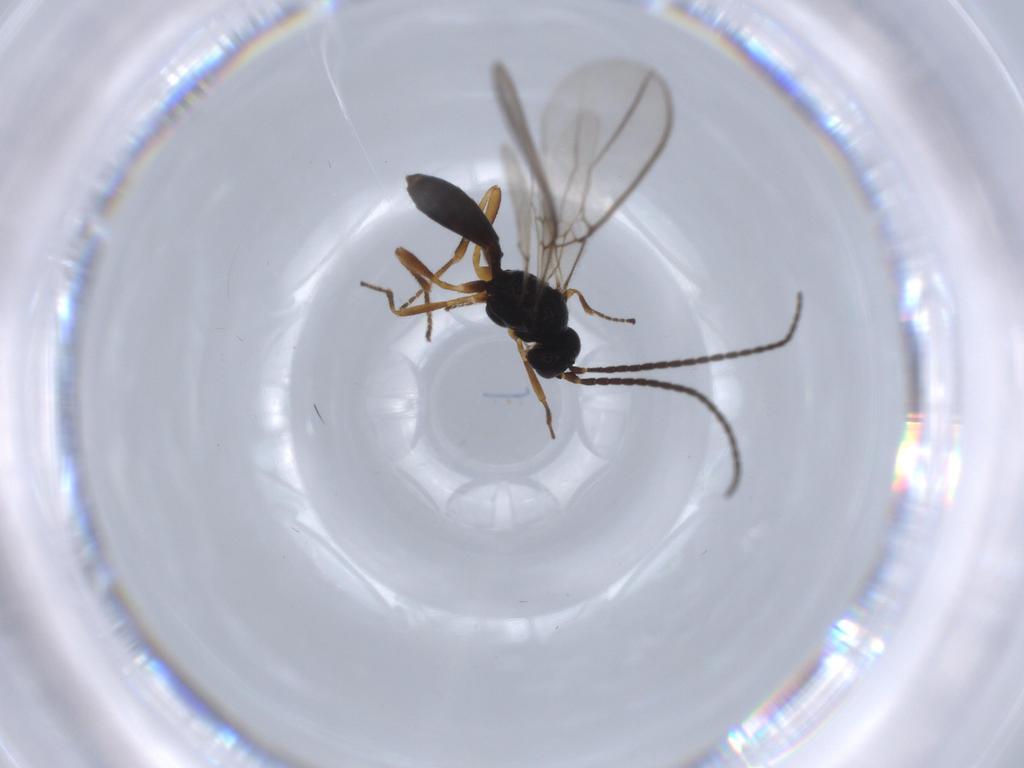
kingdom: Animalia
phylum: Arthropoda
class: Insecta
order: Hymenoptera
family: Braconidae
